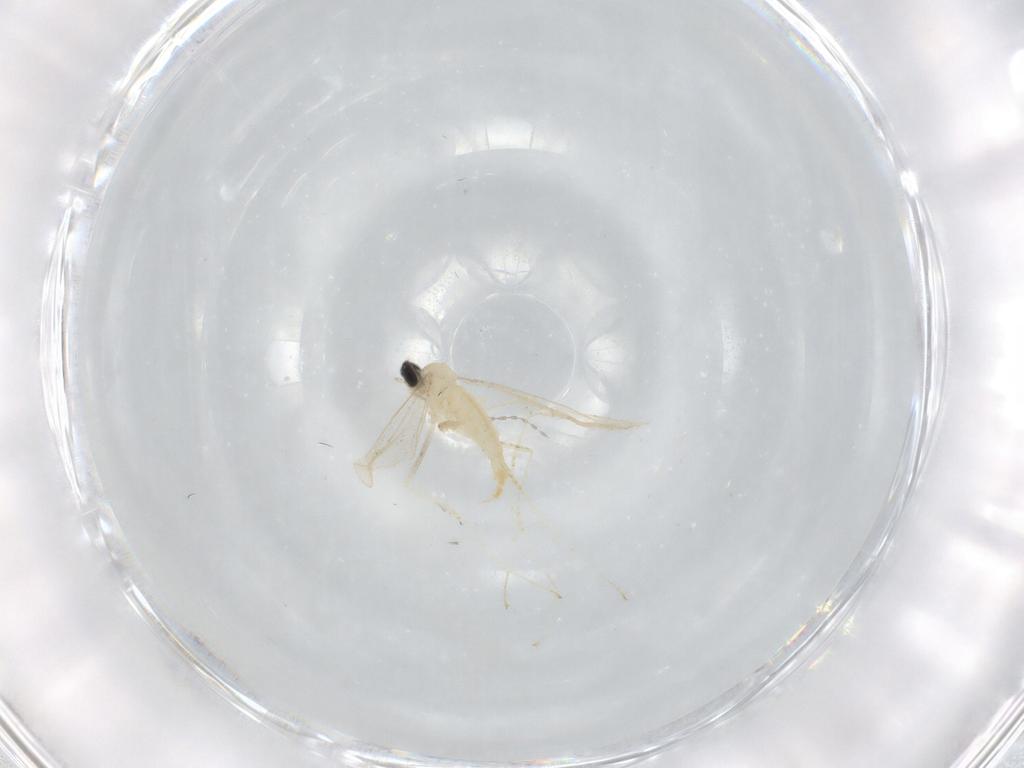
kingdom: Animalia
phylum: Arthropoda
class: Insecta
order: Diptera
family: Cecidomyiidae
